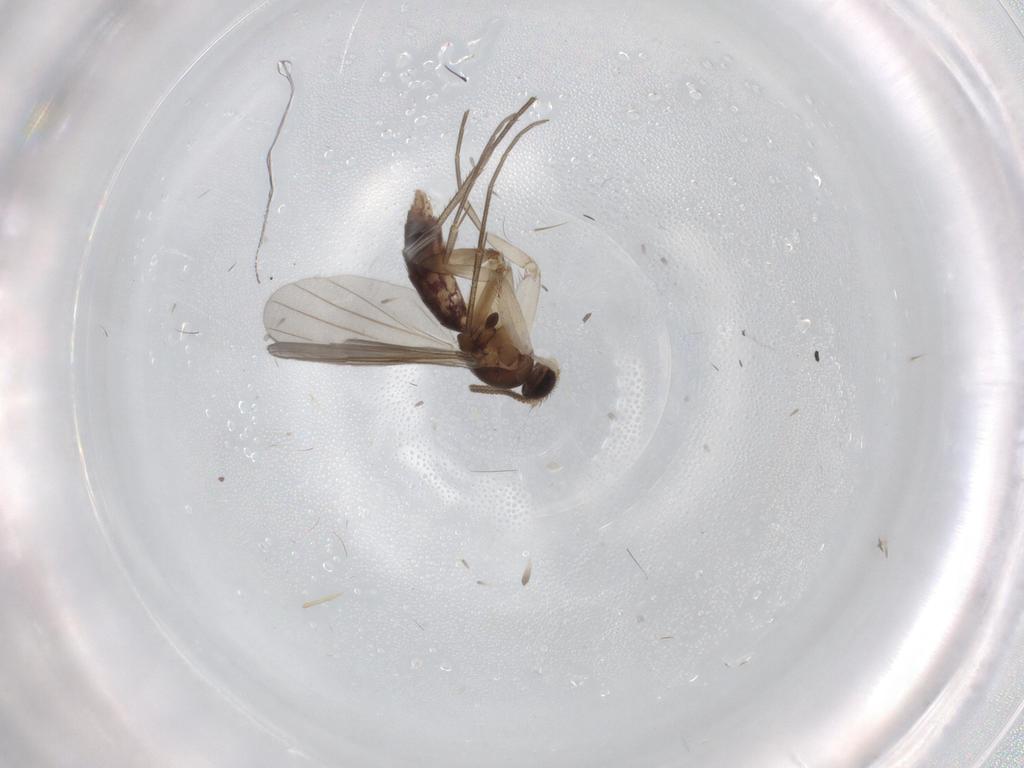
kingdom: Animalia
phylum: Arthropoda
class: Insecta
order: Diptera
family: Mycetophilidae
